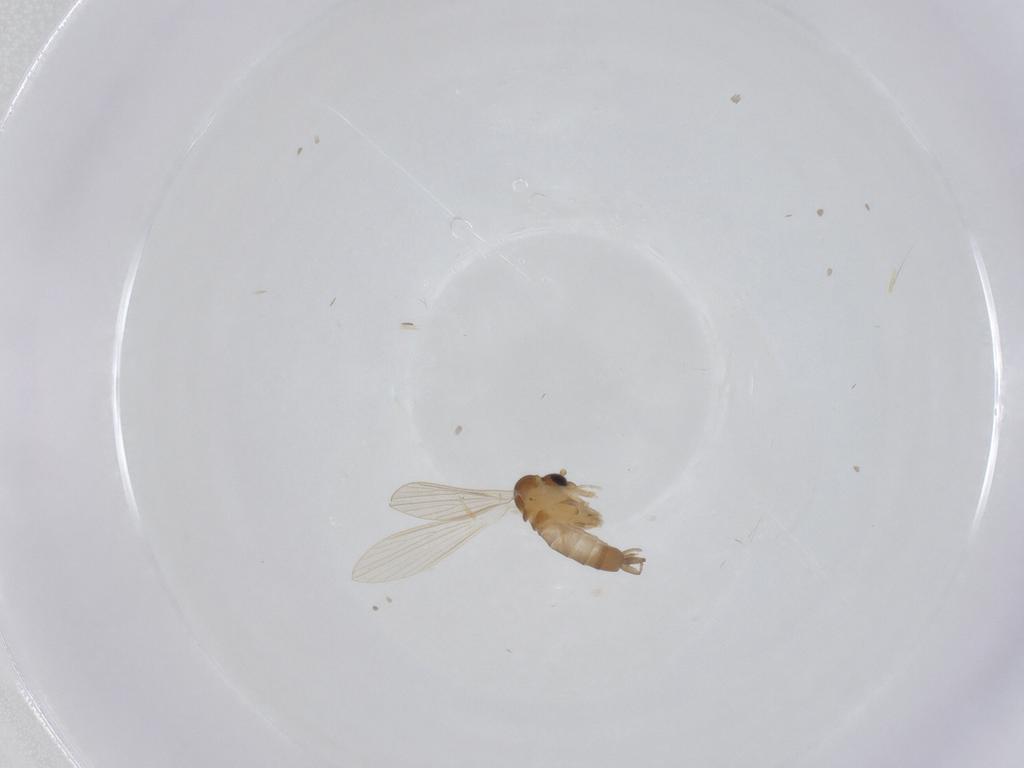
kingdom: Animalia
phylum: Arthropoda
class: Insecta
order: Diptera
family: Psychodidae
